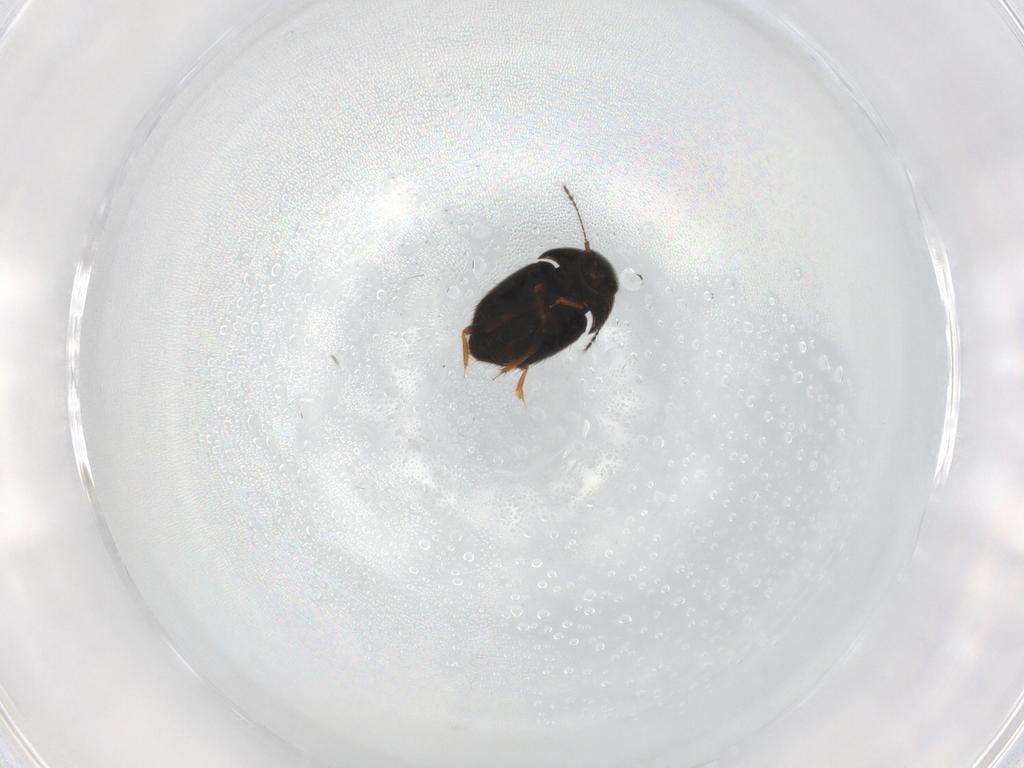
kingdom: Animalia
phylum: Arthropoda
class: Insecta
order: Coleoptera
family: Ptiliidae
